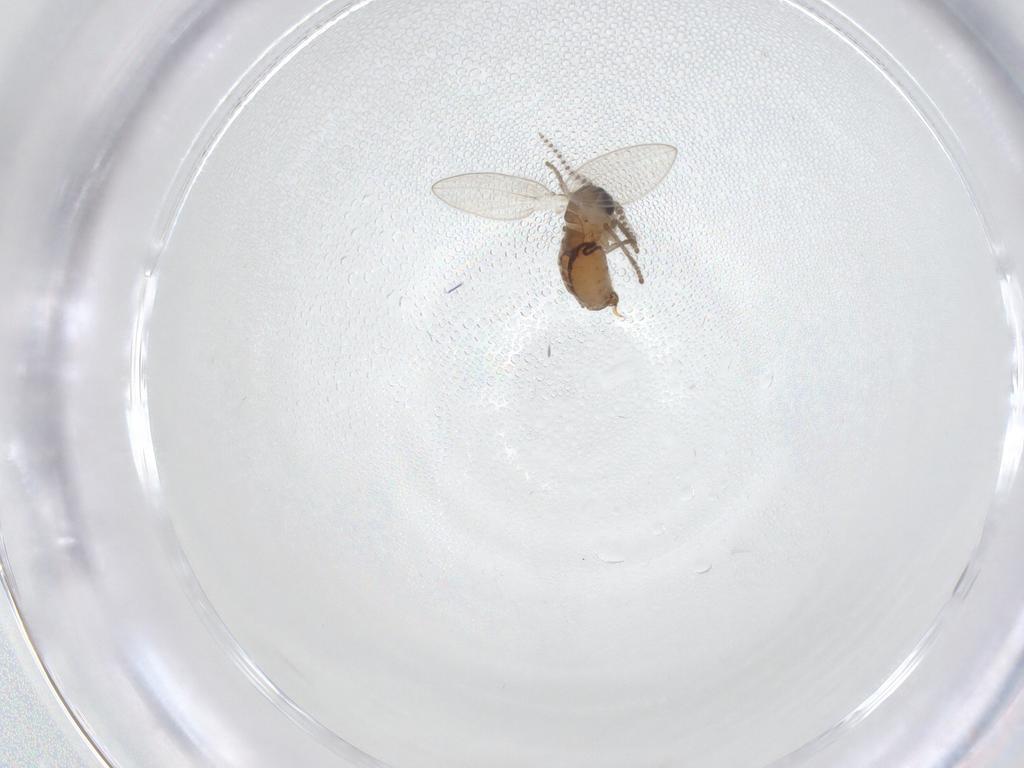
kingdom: Animalia
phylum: Arthropoda
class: Insecta
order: Diptera
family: Psychodidae
